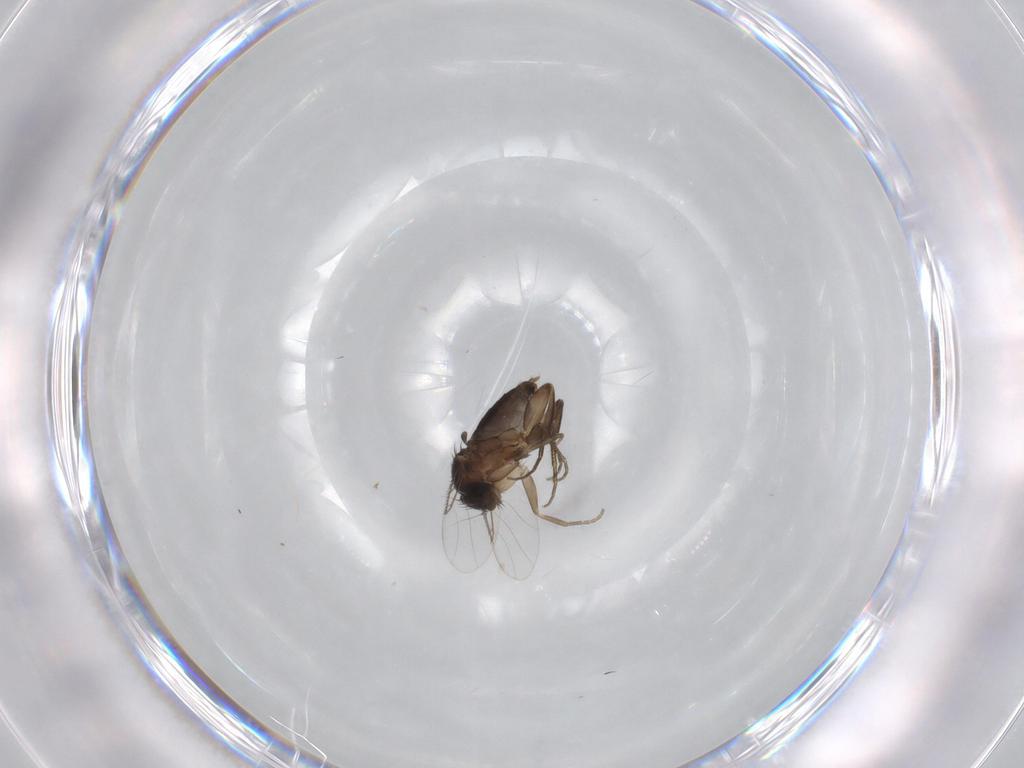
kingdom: Animalia
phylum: Arthropoda
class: Insecta
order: Diptera
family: Phoridae
